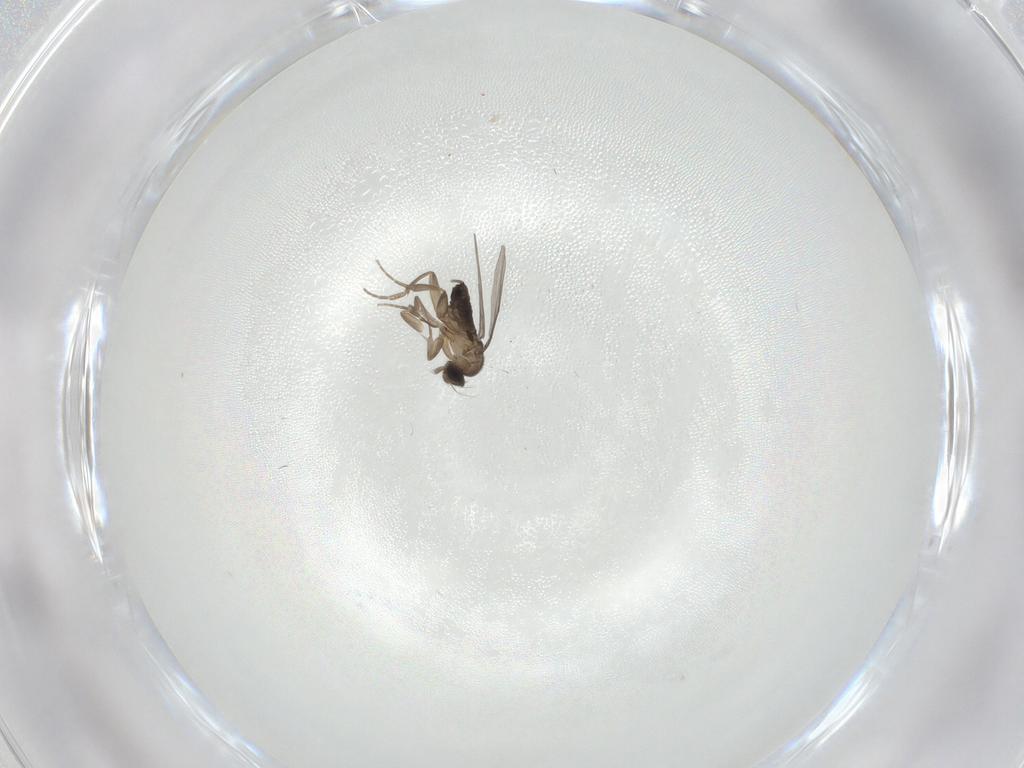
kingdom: Animalia
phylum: Arthropoda
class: Insecta
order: Diptera
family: Phoridae
